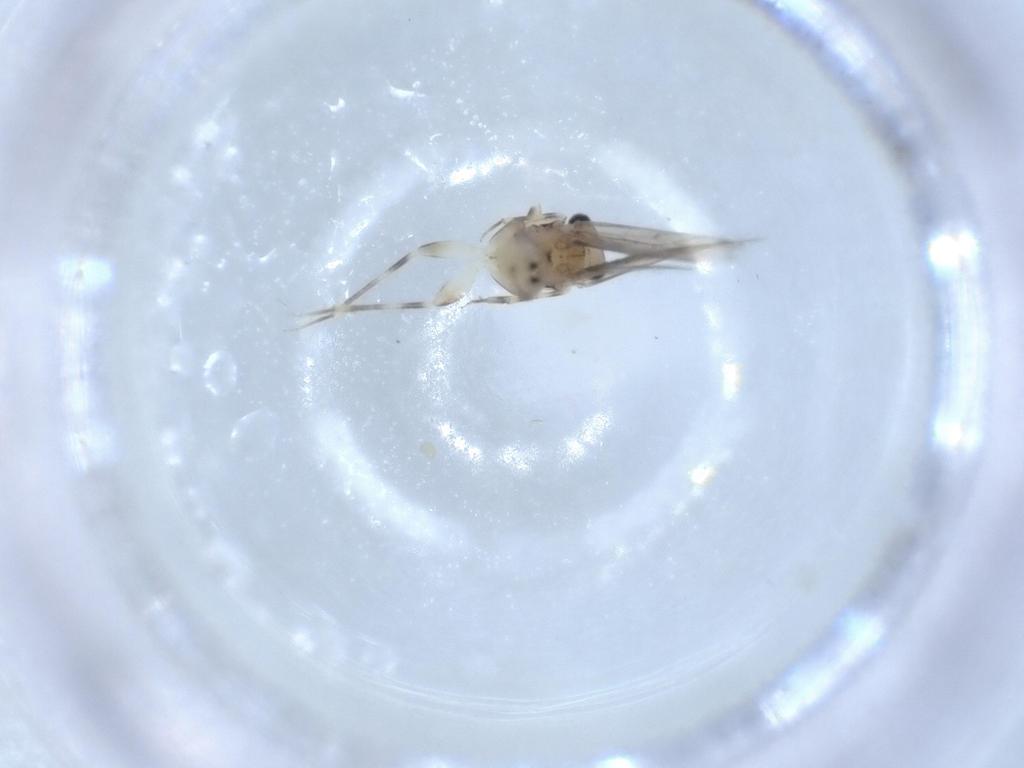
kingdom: Animalia
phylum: Arthropoda
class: Insecta
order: Psocodea
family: Lepidopsocidae
